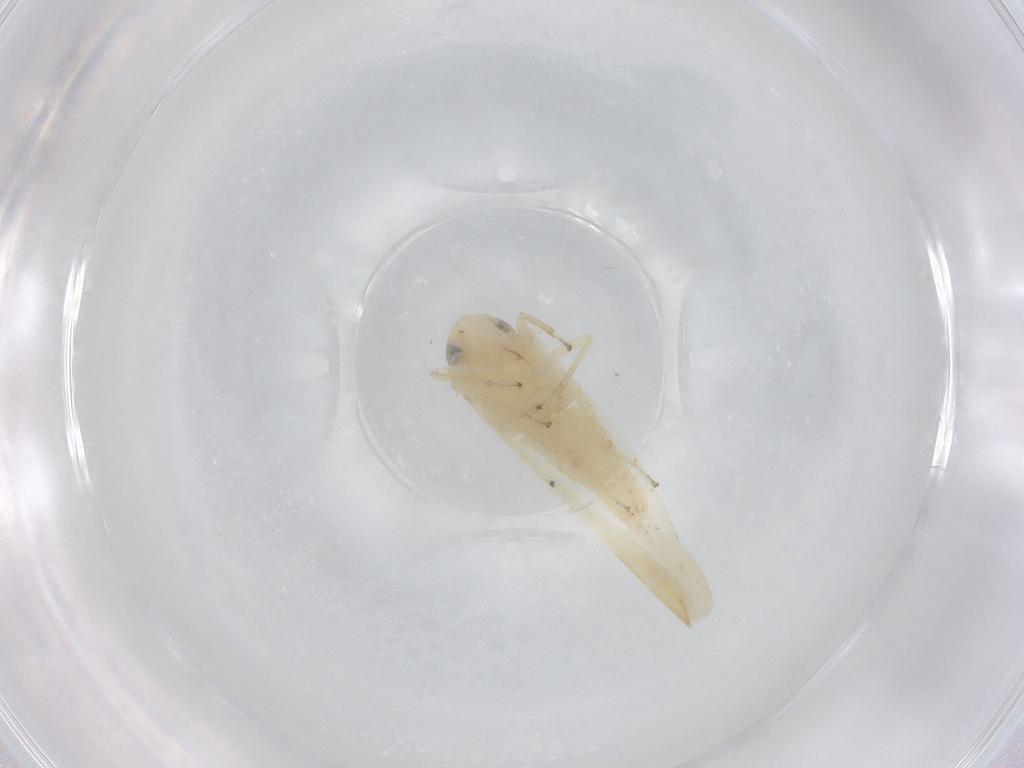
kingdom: Animalia
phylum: Arthropoda
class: Insecta
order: Hemiptera
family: Cicadellidae
